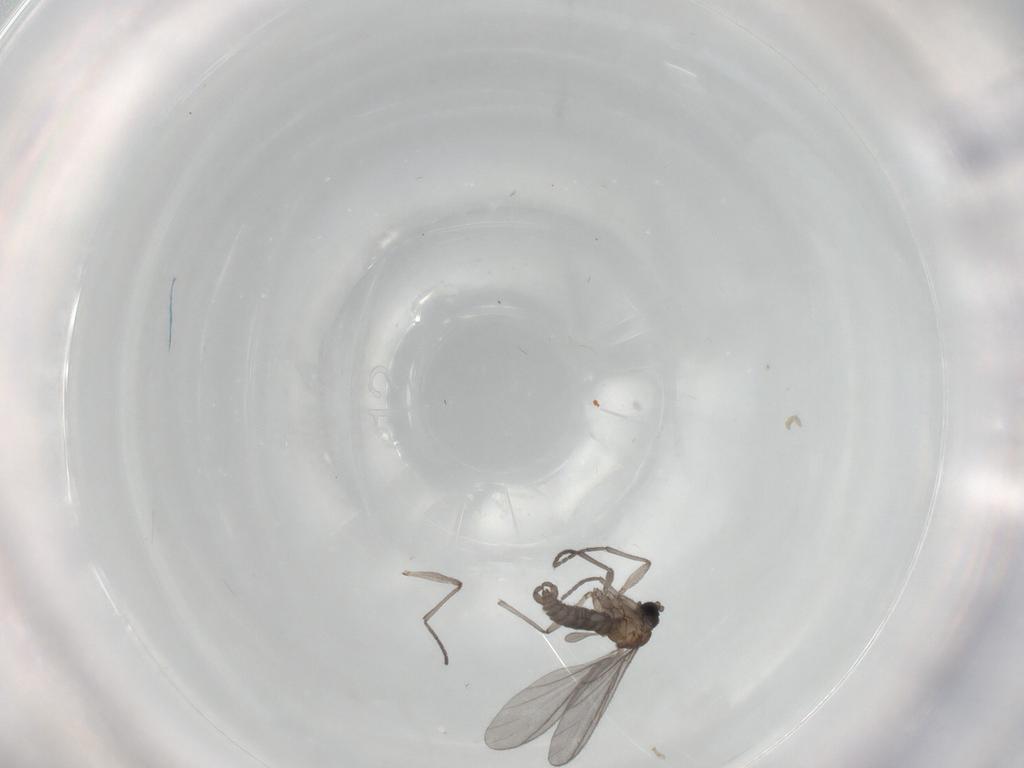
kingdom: Animalia
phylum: Arthropoda
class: Insecta
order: Diptera
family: Sciaridae
